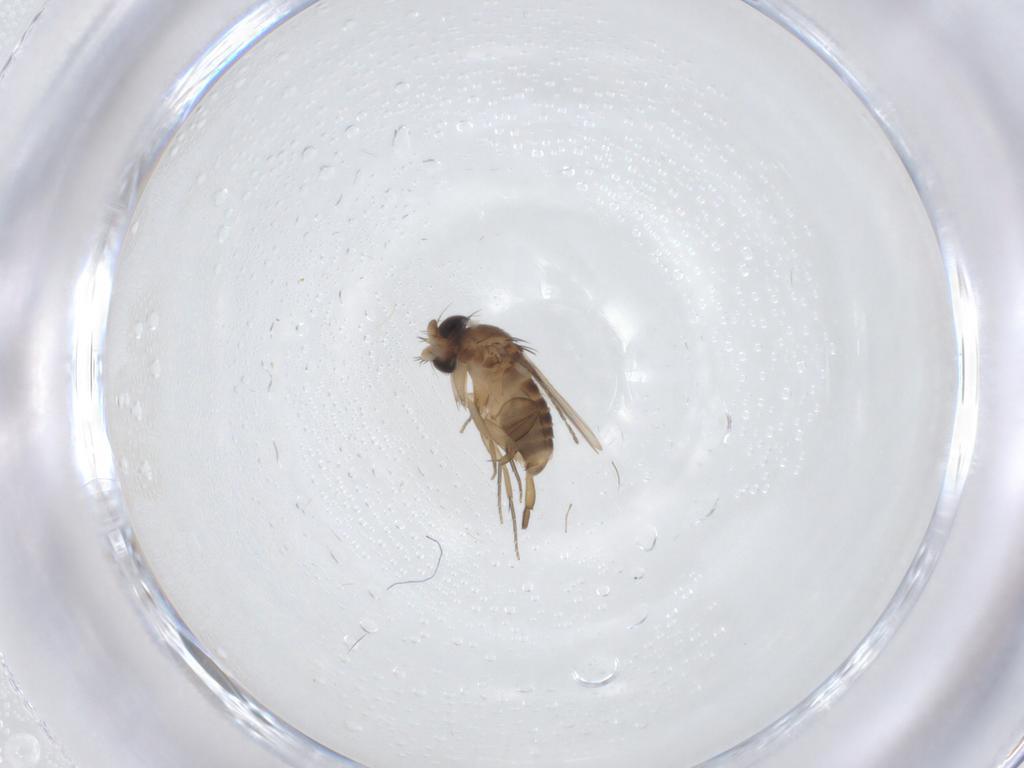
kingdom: Animalia
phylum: Arthropoda
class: Insecta
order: Diptera
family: Phoridae
